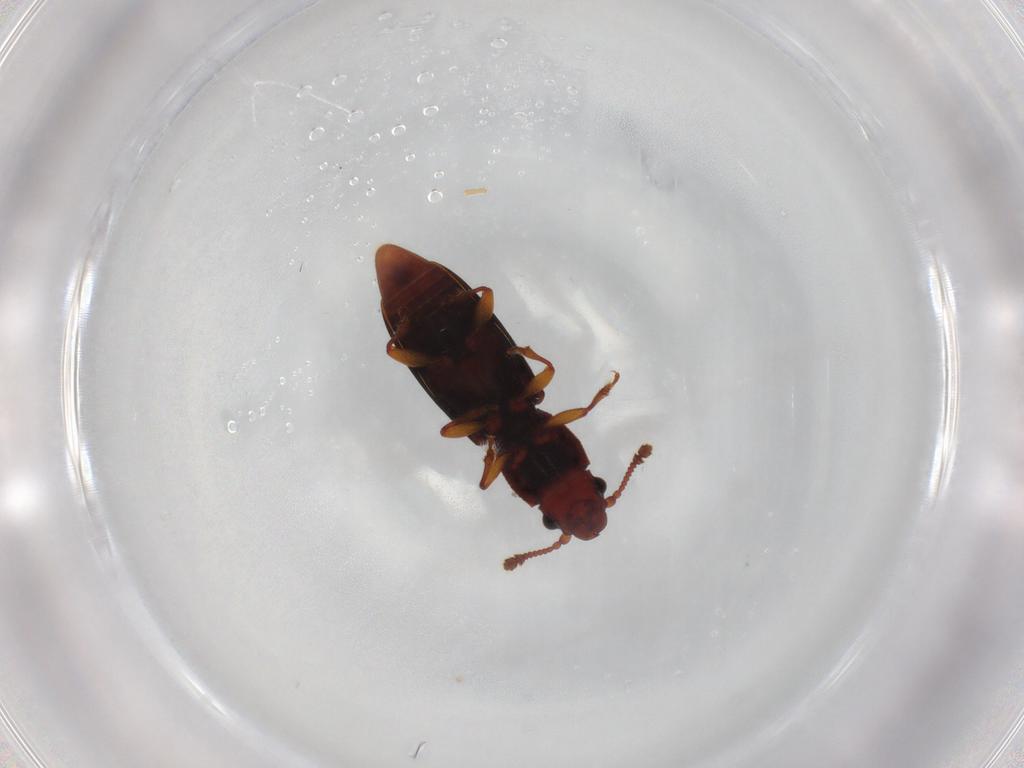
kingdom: Animalia
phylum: Arthropoda
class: Insecta
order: Coleoptera
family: Monotomidae
